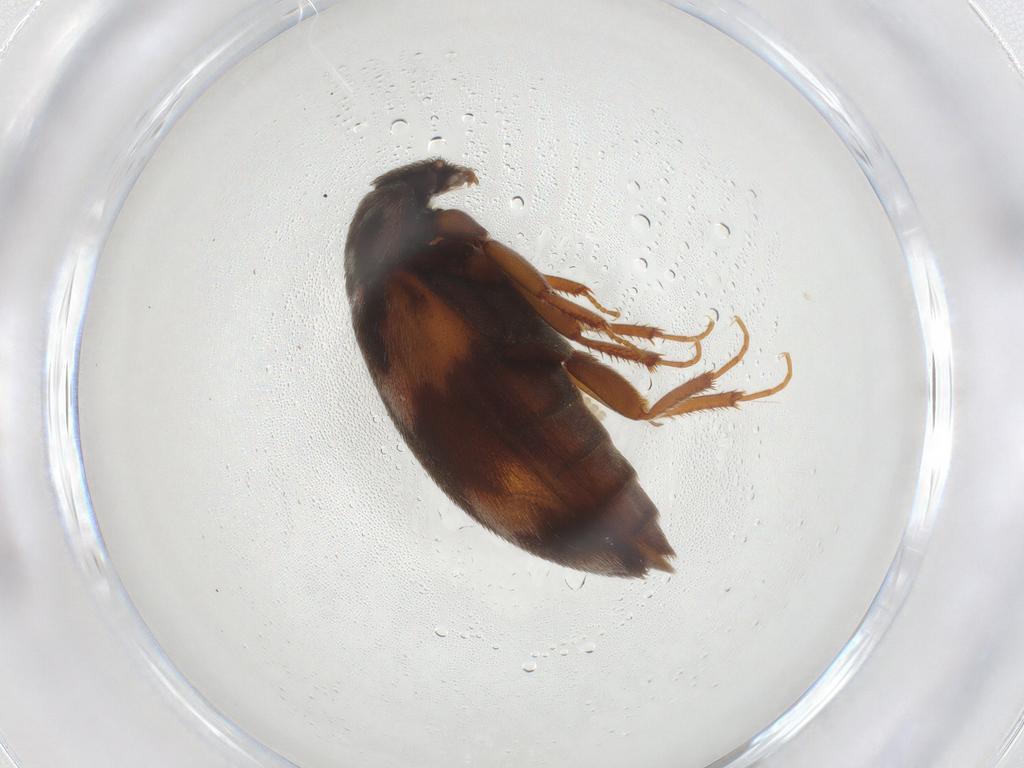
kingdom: Animalia
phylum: Arthropoda
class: Insecta
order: Coleoptera
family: Dermestidae
